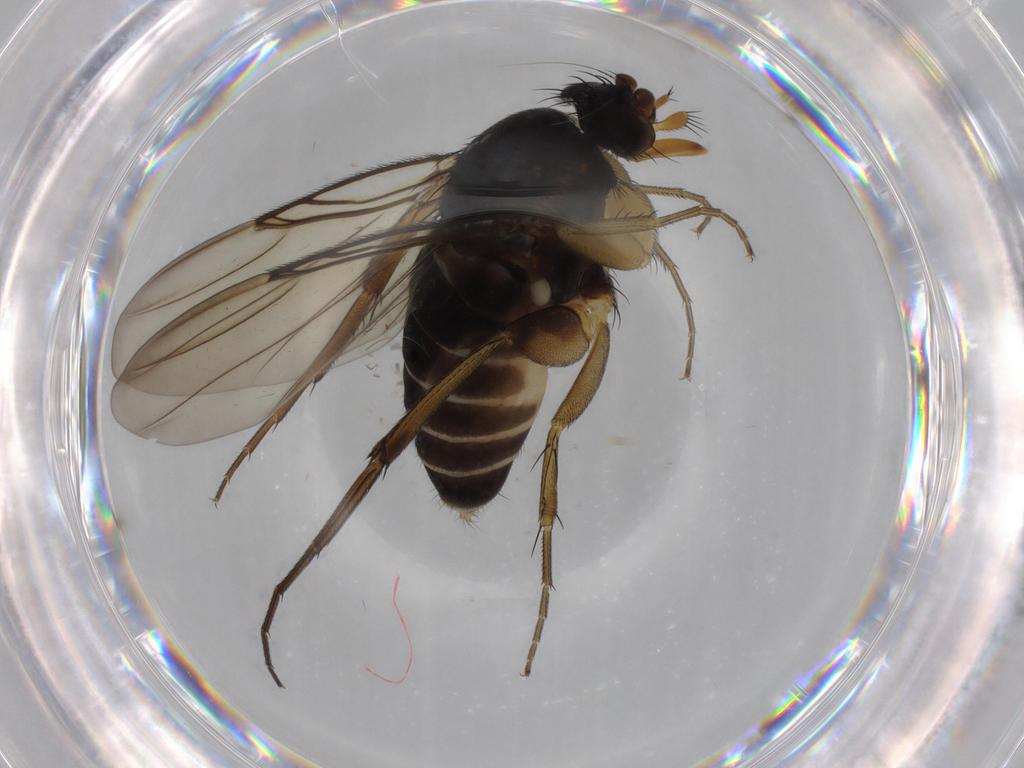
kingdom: Animalia
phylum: Arthropoda
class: Insecta
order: Diptera
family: Phoridae
